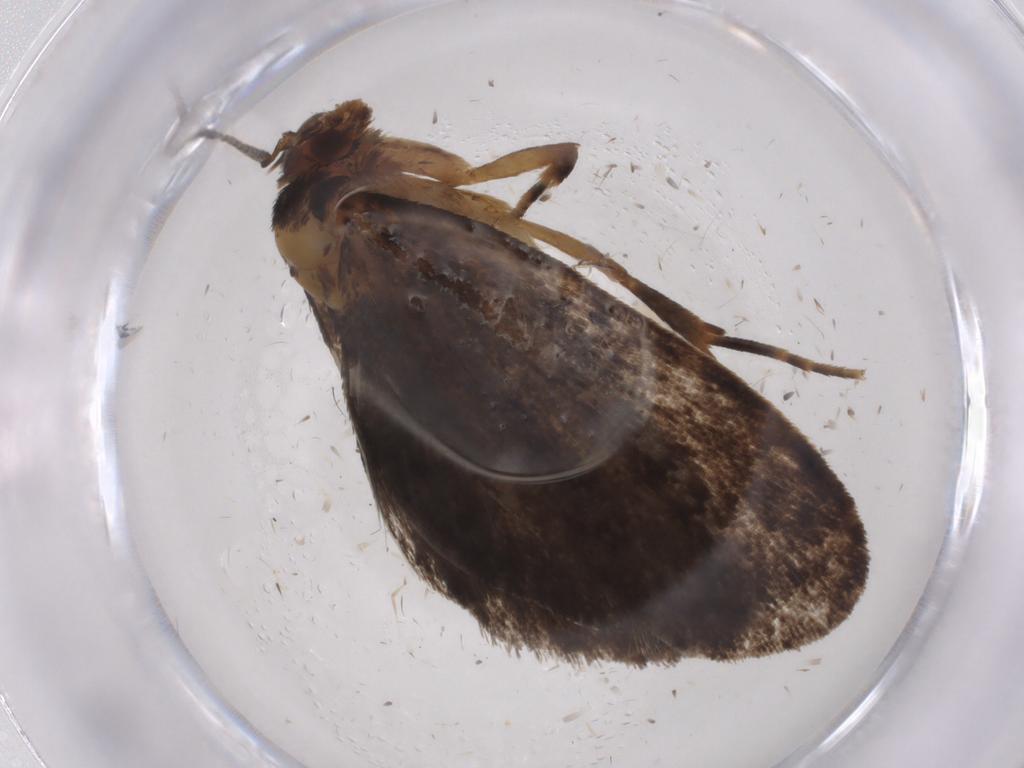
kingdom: Animalia
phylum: Arthropoda
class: Insecta
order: Lepidoptera
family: Tineidae
